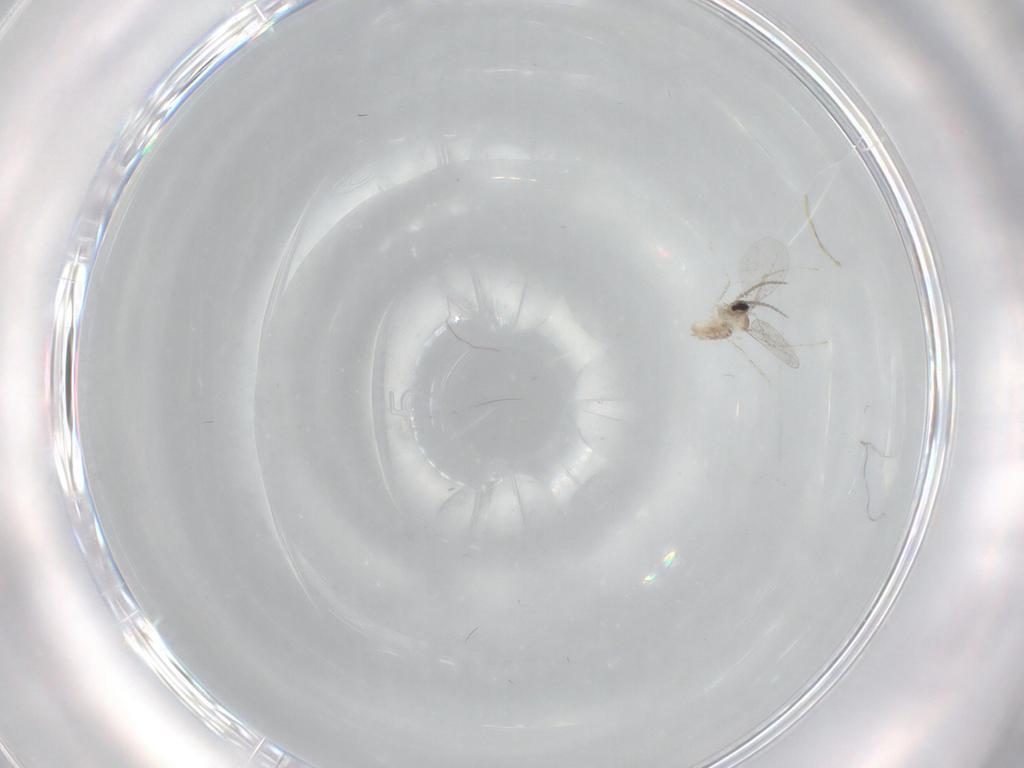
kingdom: Animalia
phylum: Arthropoda
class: Insecta
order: Diptera
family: Cecidomyiidae
